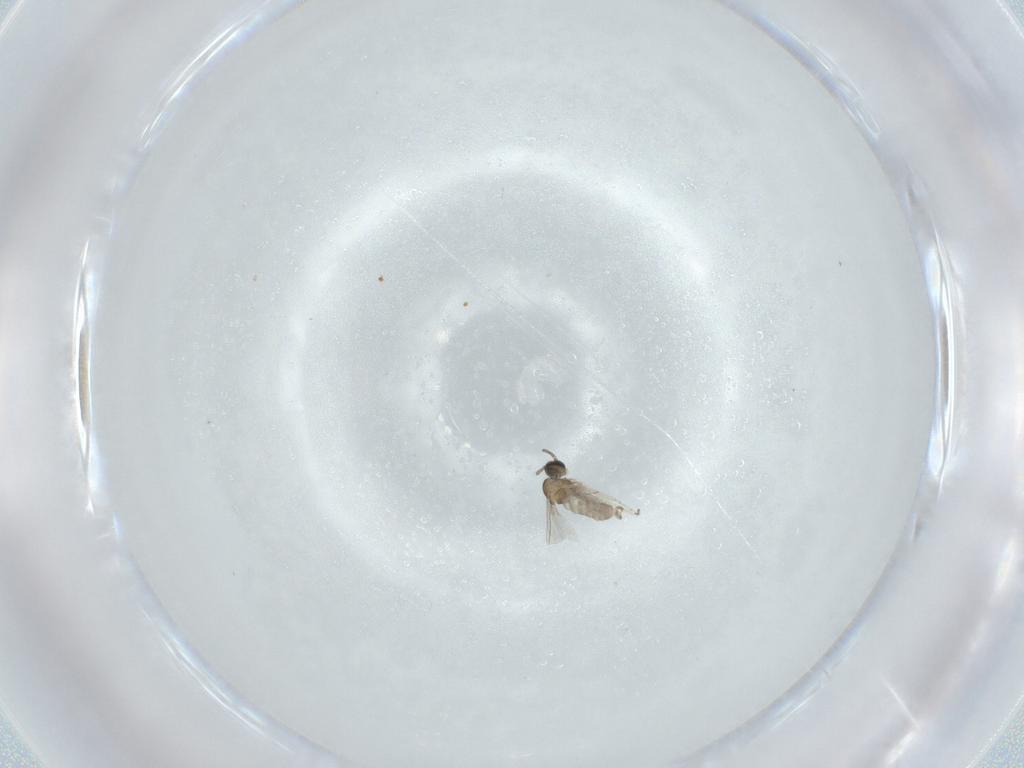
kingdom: Animalia
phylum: Arthropoda
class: Insecta
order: Diptera
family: Cecidomyiidae
